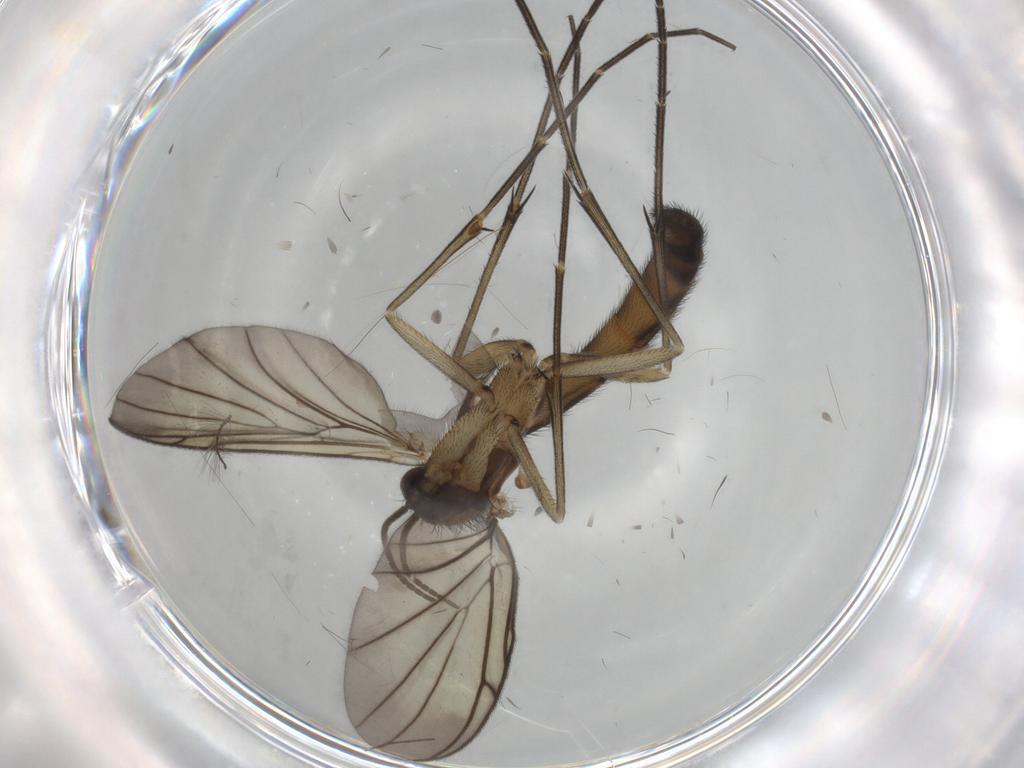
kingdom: Animalia
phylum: Arthropoda
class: Insecta
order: Diptera
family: Keroplatidae
